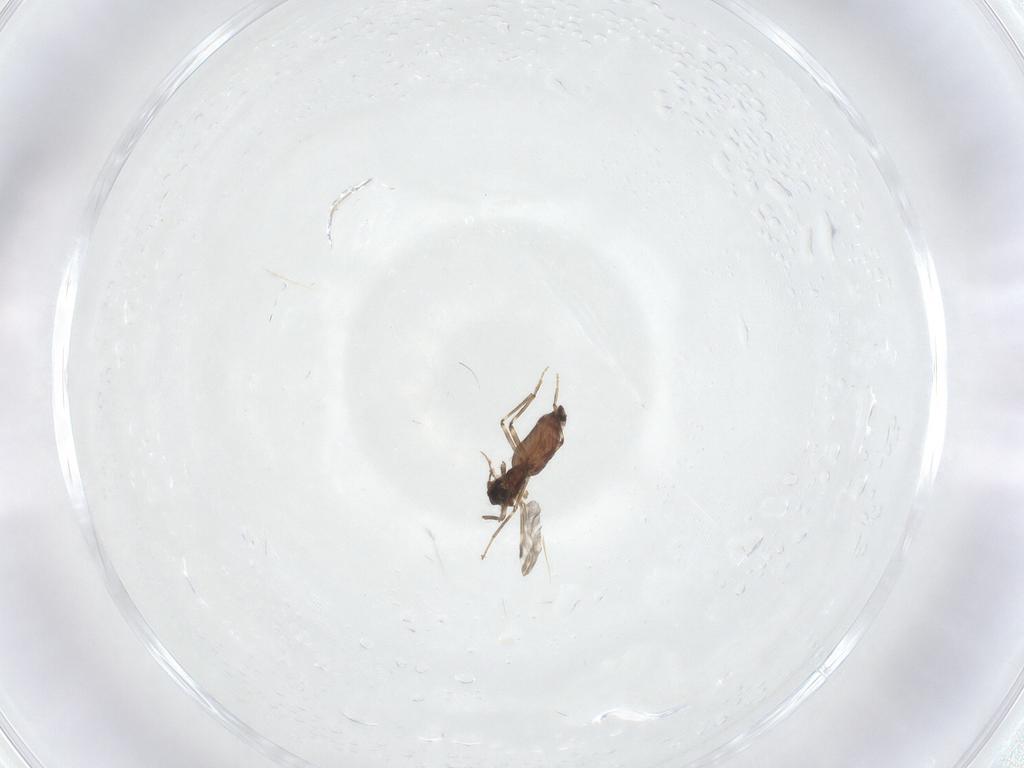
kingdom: Animalia
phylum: Arthropoda
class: Insecta
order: Diptera
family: Ceratopogonidae
